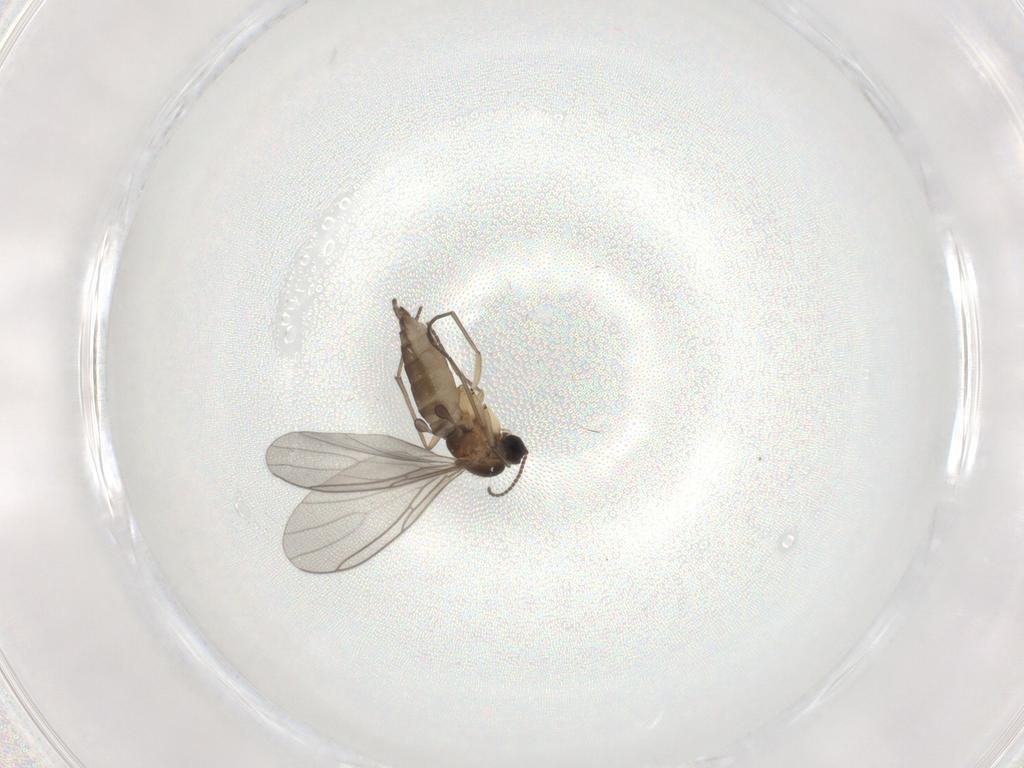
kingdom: Animalia
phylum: Arthropoda
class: Insecta
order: Diptera
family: Sciaridae
